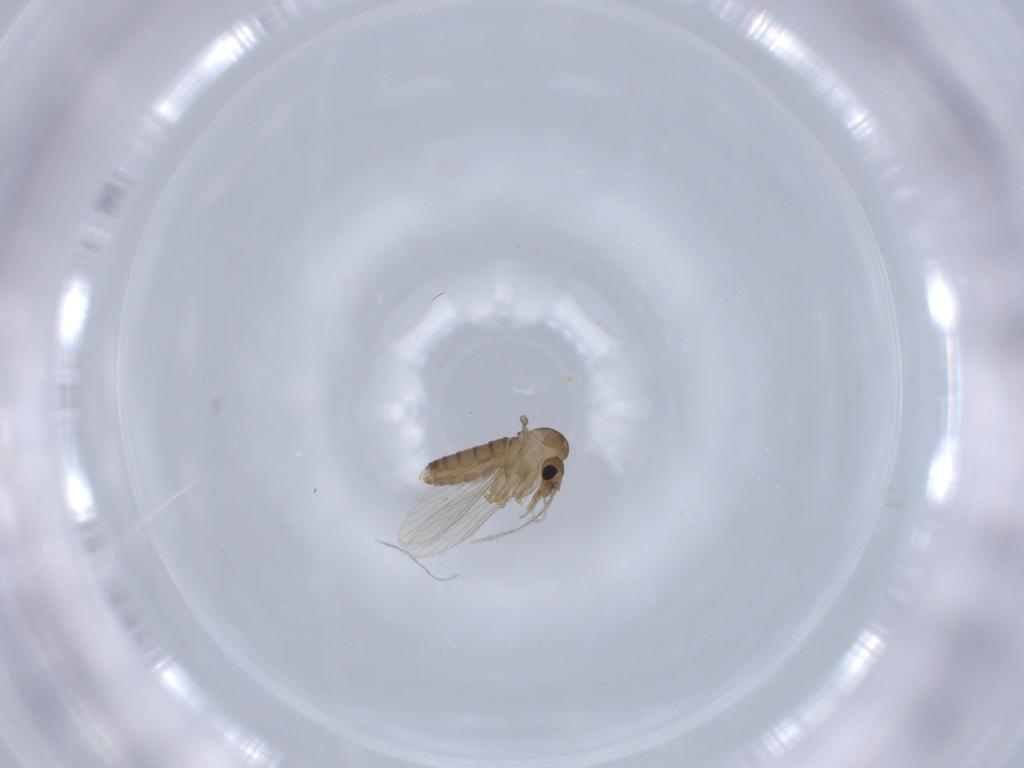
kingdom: Animalia
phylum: Arthropoda
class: Insecta
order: Diptera
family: Psychodidae
